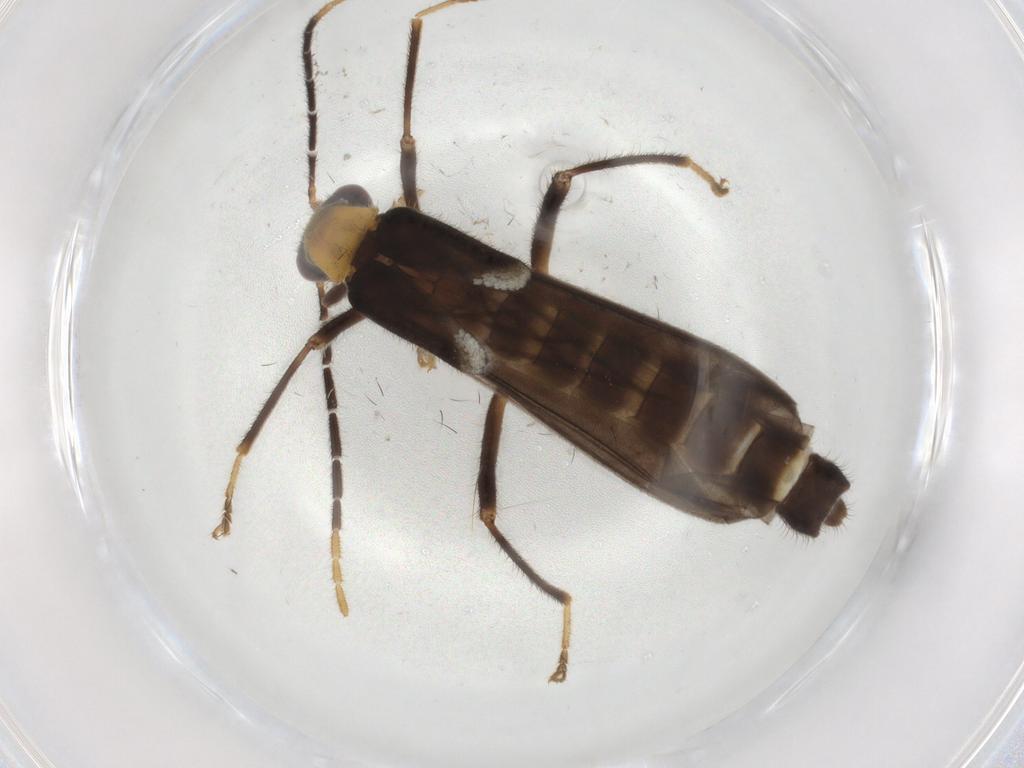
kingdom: Animalia
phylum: Arthropoda
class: Insecta
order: Coleoptera
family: Cantharidae
